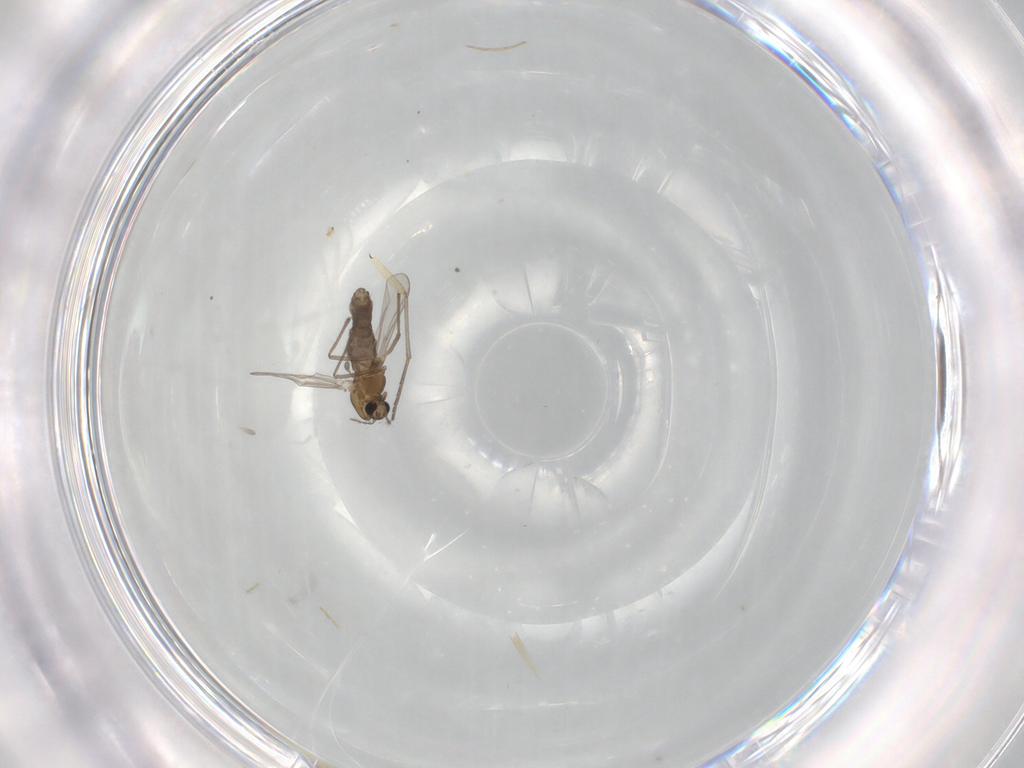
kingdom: Animalia
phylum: Arthropoda
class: Insecta
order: Diptera
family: Chironomidae
